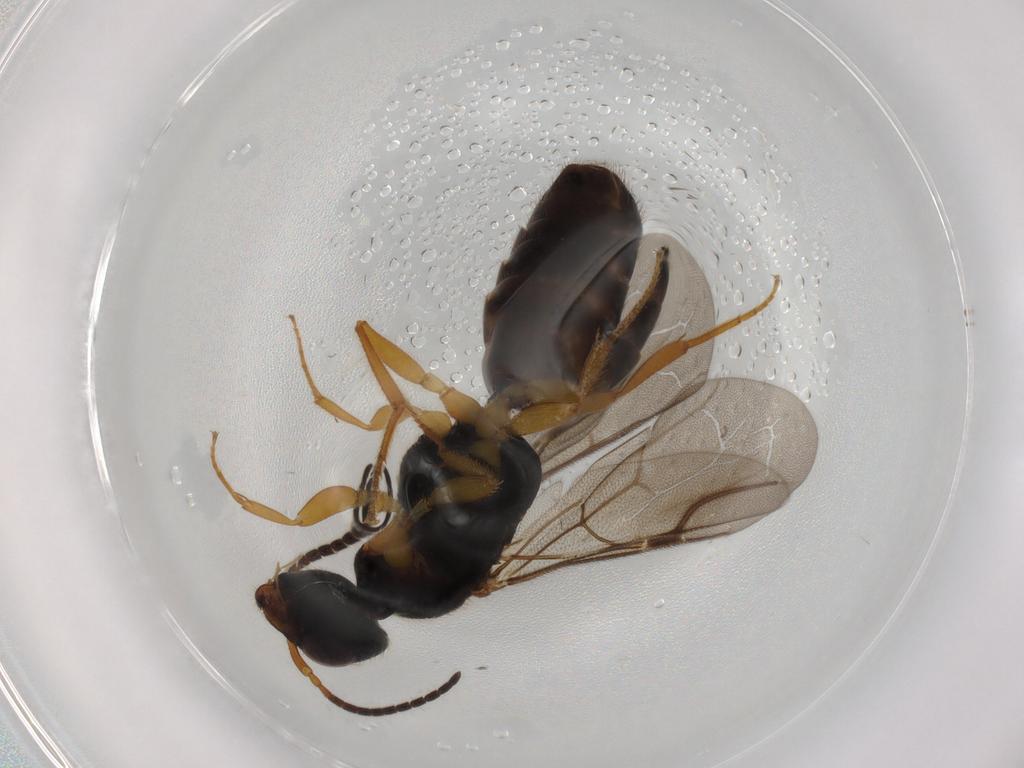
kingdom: Animalia
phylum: Arthropoda
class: Insecta
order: Hymenoptera
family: Bethylidae
